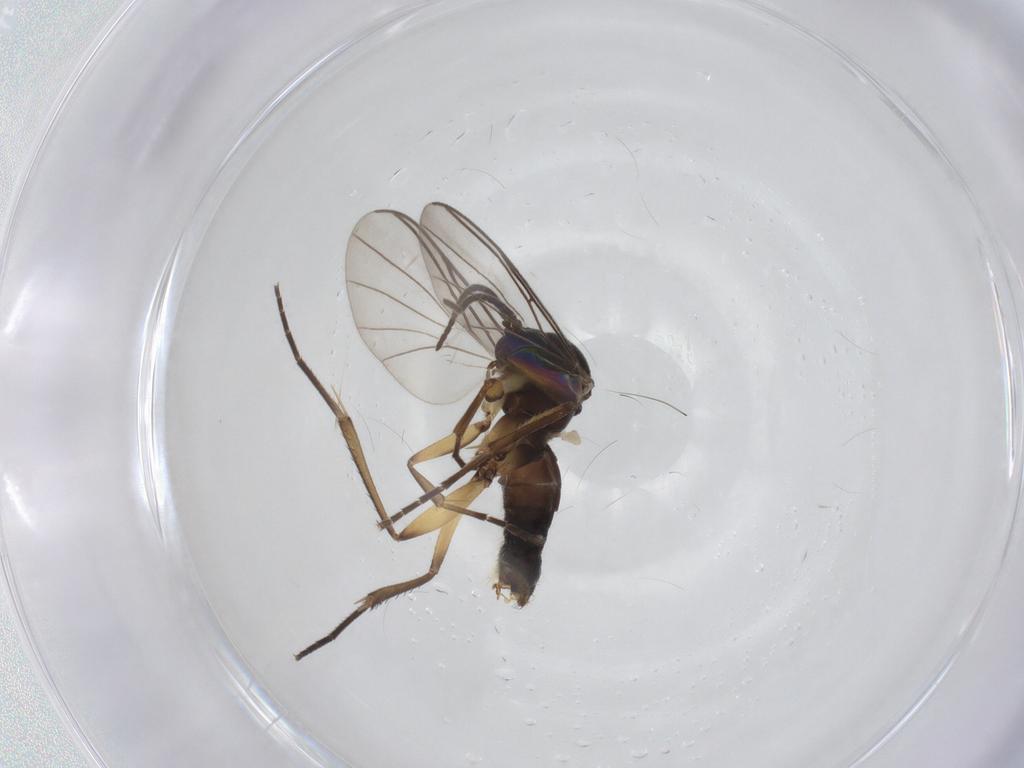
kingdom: Animalia
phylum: Arthropoda
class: Insecta
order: Diptera
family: Mycetophilidae
